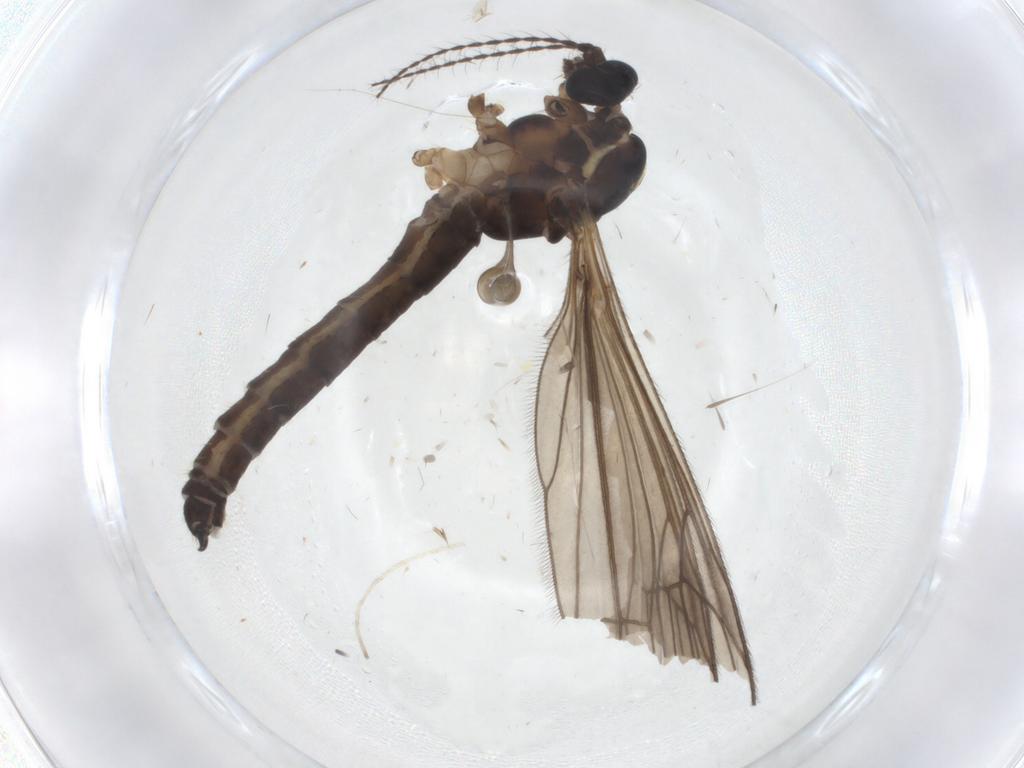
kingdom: Animalia
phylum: Arthropoda
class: Insecta
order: Diptera
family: Limoniidae
